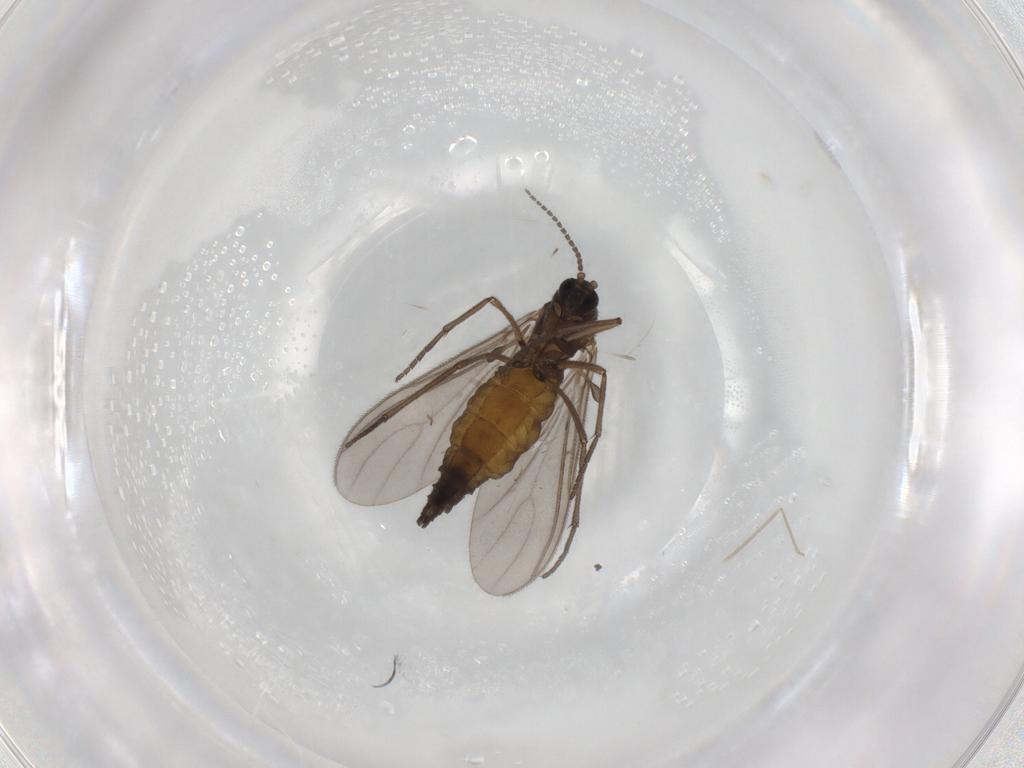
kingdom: Animalia
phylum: Arthropoda
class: Insecta
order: Diptera
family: Sciaridae
